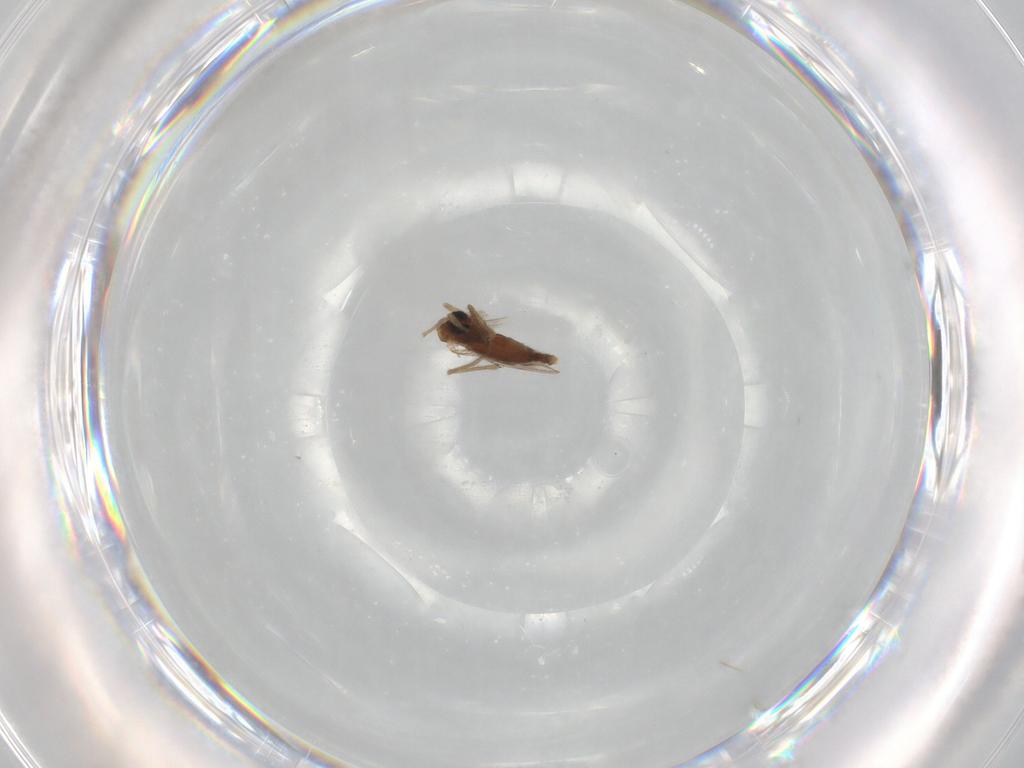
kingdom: Animalia
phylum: Arthropoda
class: Insecta
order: Diptera
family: Chironomidae
